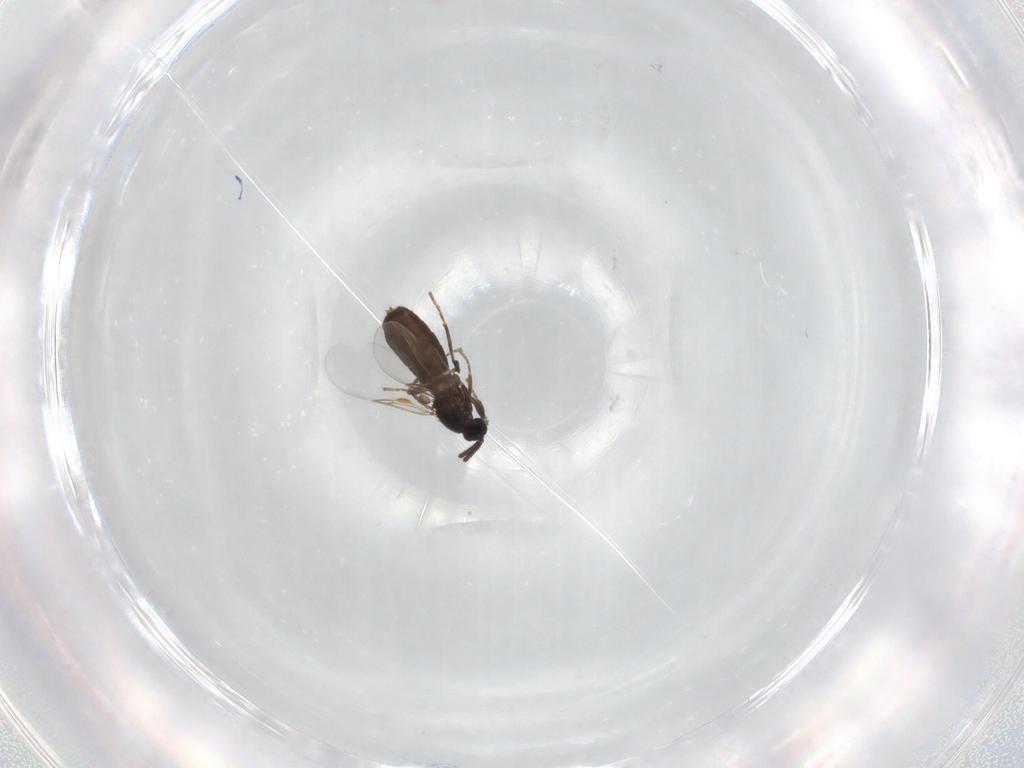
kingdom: Animalia
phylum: Arthropoda
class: Insecta
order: Diptera
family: Scatopsidae
